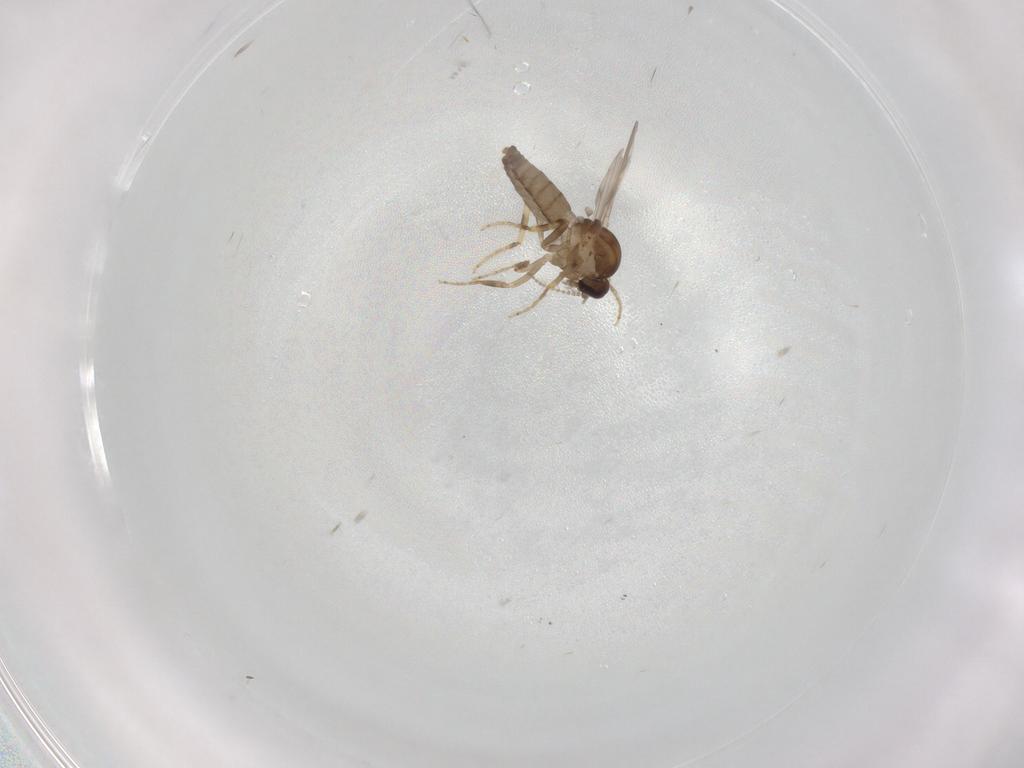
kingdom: Animalia
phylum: Arthropoda
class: Insecta
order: Diptera
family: Ceratopogonidae
